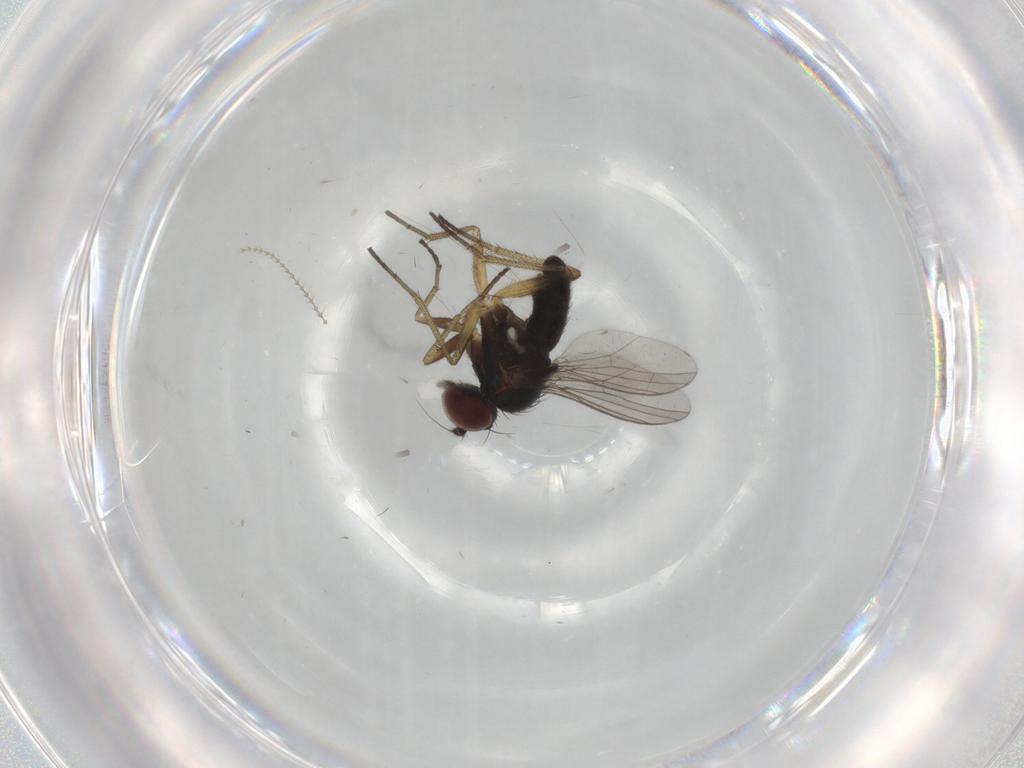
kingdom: Animalia
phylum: Arthropoda
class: Insecta
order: Diptera
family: Dolichopodidae
